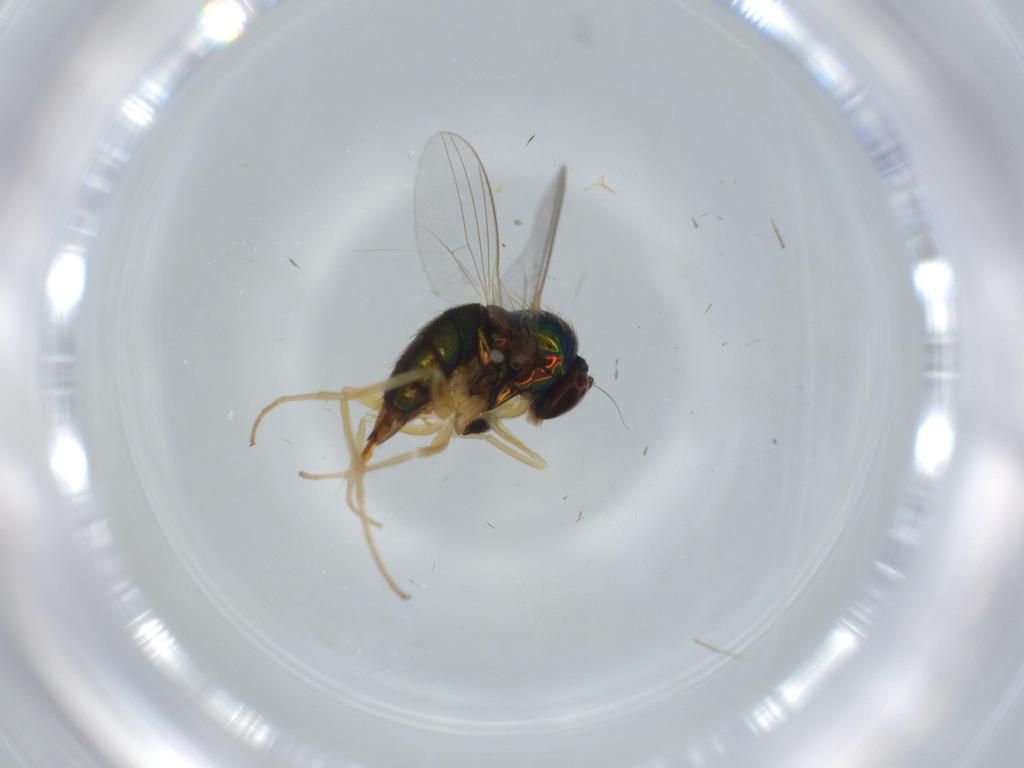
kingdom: Animalia
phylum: Arthropoda
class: Insecta
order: Diptera
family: Dolichopodidae
